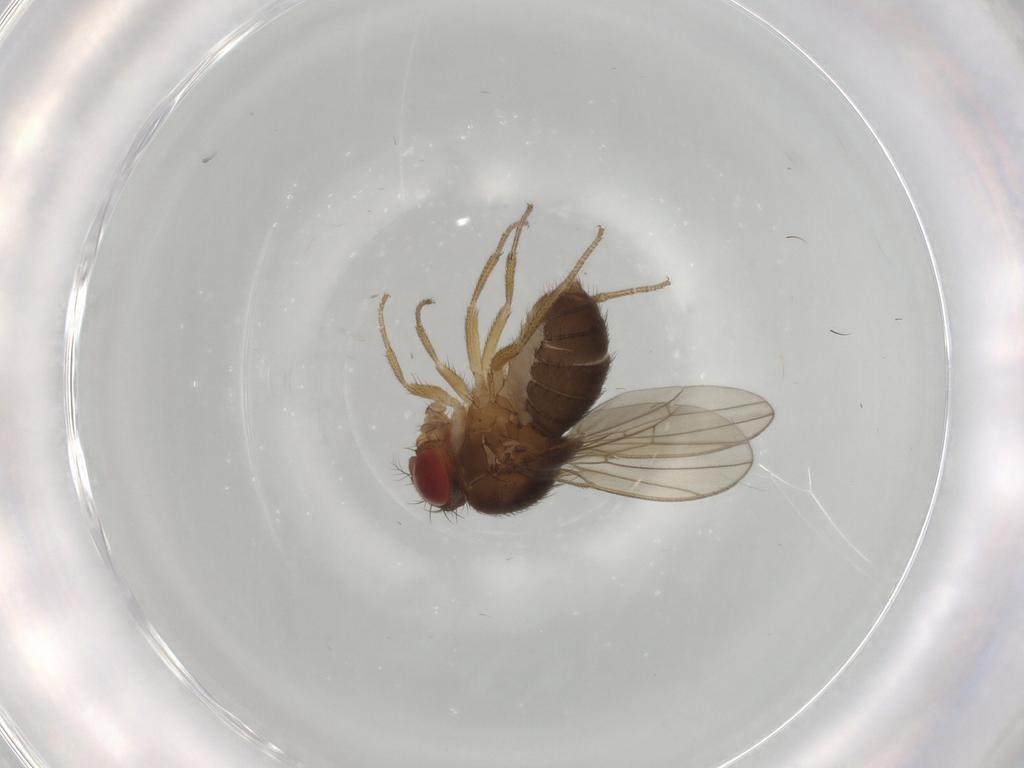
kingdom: Animalia
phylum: Arthropoda
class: Insecta
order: Diptera
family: Drosophilidae
